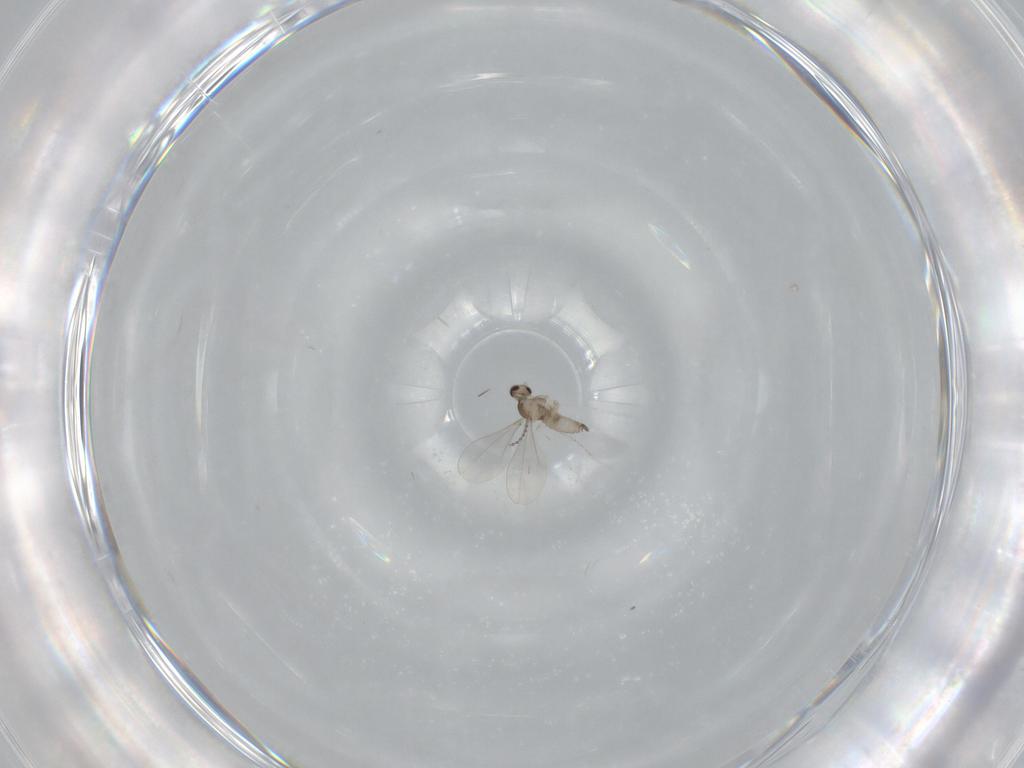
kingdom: Animalia
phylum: Arthropoda
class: Insecta
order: Diptera
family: Cecidomyiidae
